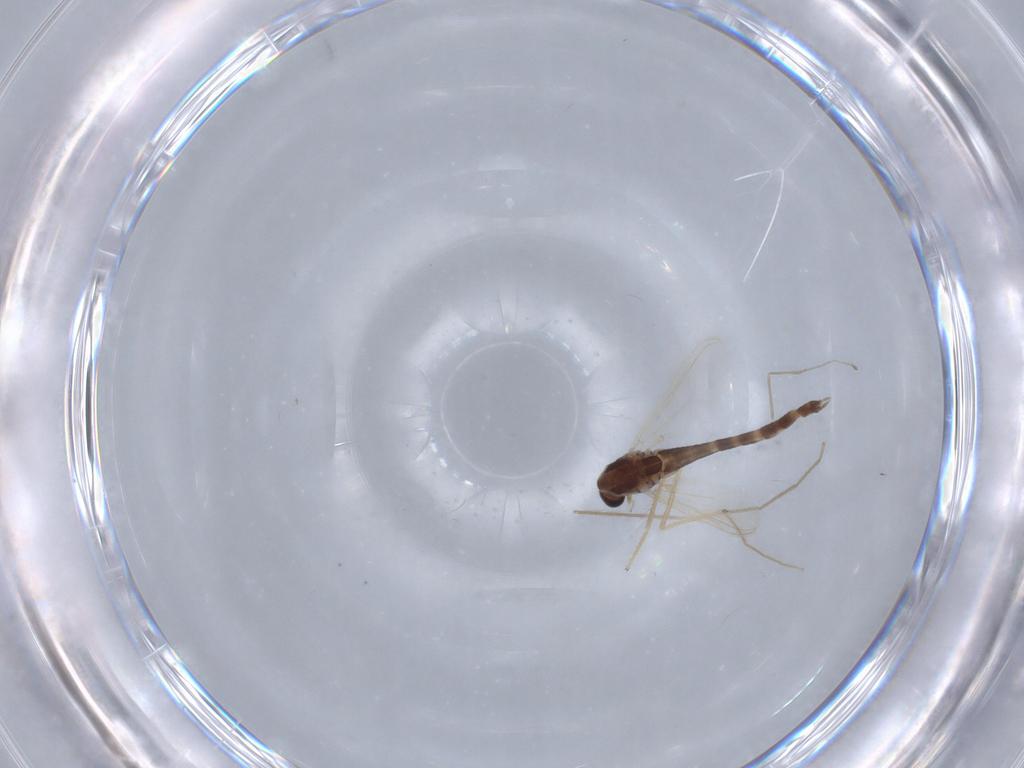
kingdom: Animalia
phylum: Arthropoda
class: Insecta
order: Diptera
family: Chironomidae
